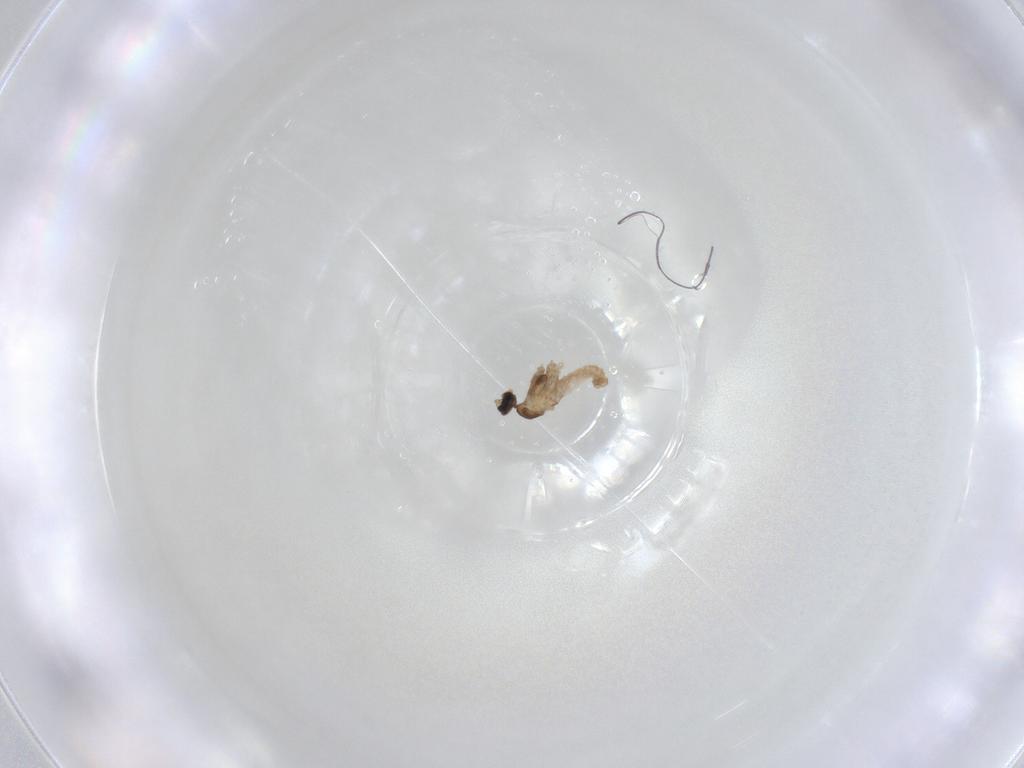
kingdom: Animalia
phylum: Arthropoda
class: Insecta
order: Diptera
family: Cecidomyiidae
